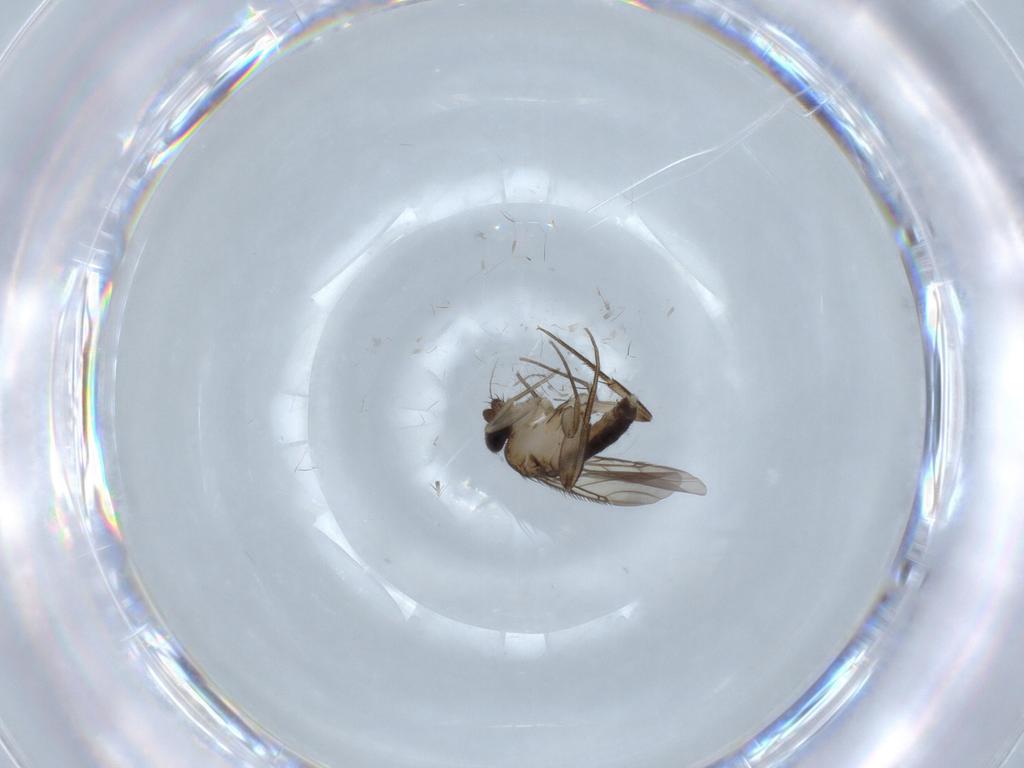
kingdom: Animalia
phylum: Arthropoda
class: Insecta
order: Diptera
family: Phoridae
